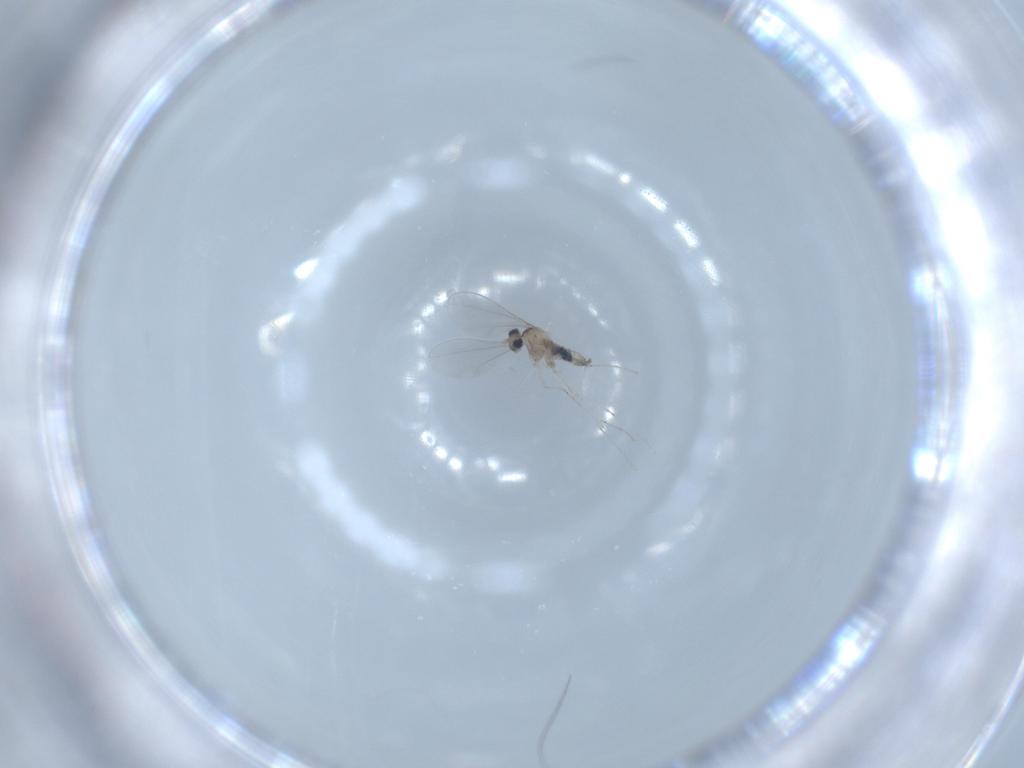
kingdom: Animalia
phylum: Arthropoda
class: Insecta
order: Diptera
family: Cecidomyiidae
